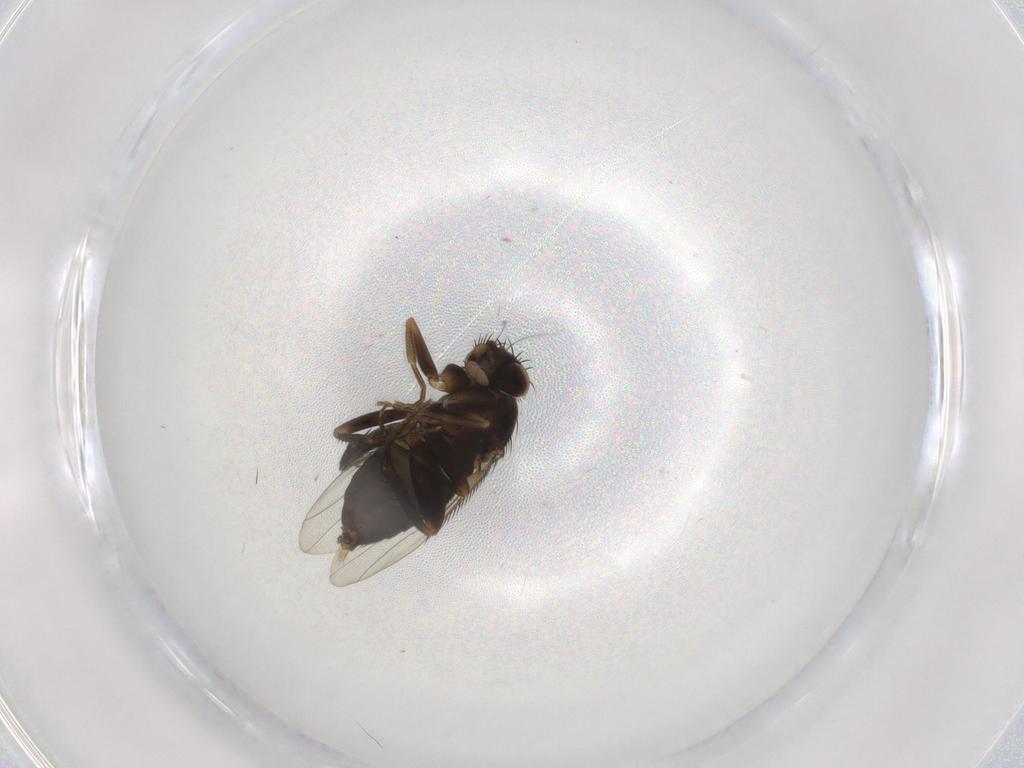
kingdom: Animalia
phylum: Arthropoda
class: Insecta
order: Diptera
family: Phoridae
